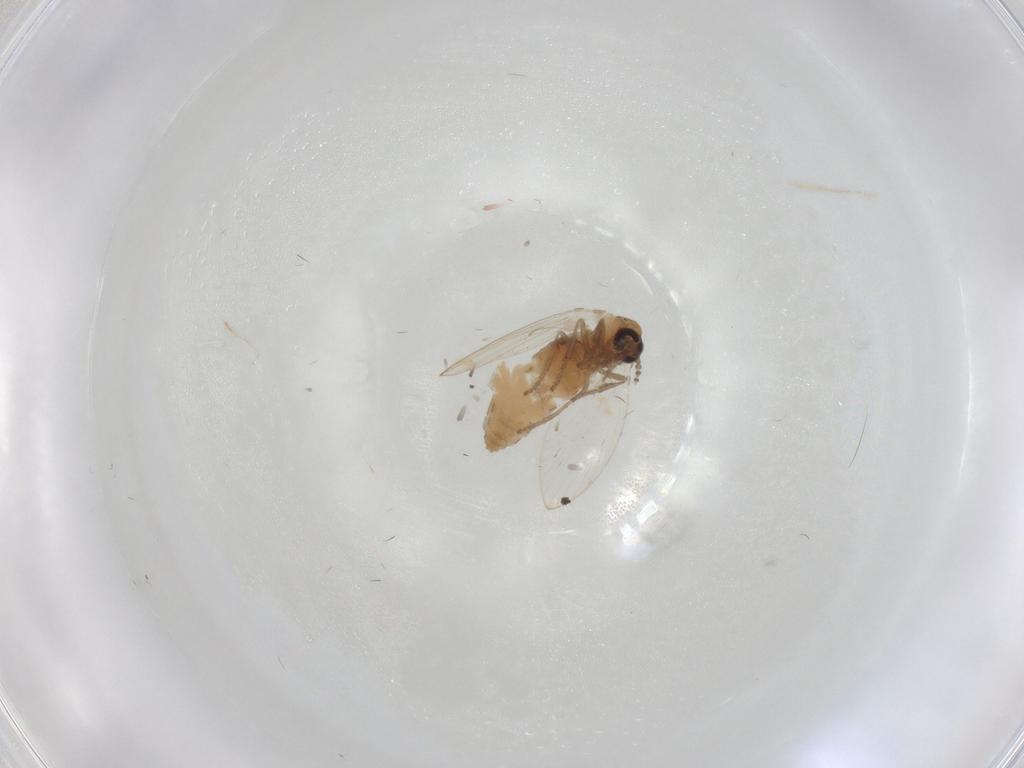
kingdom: Animalia
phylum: Arthropoda
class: Insecta
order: Diptera
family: Psychodidae
